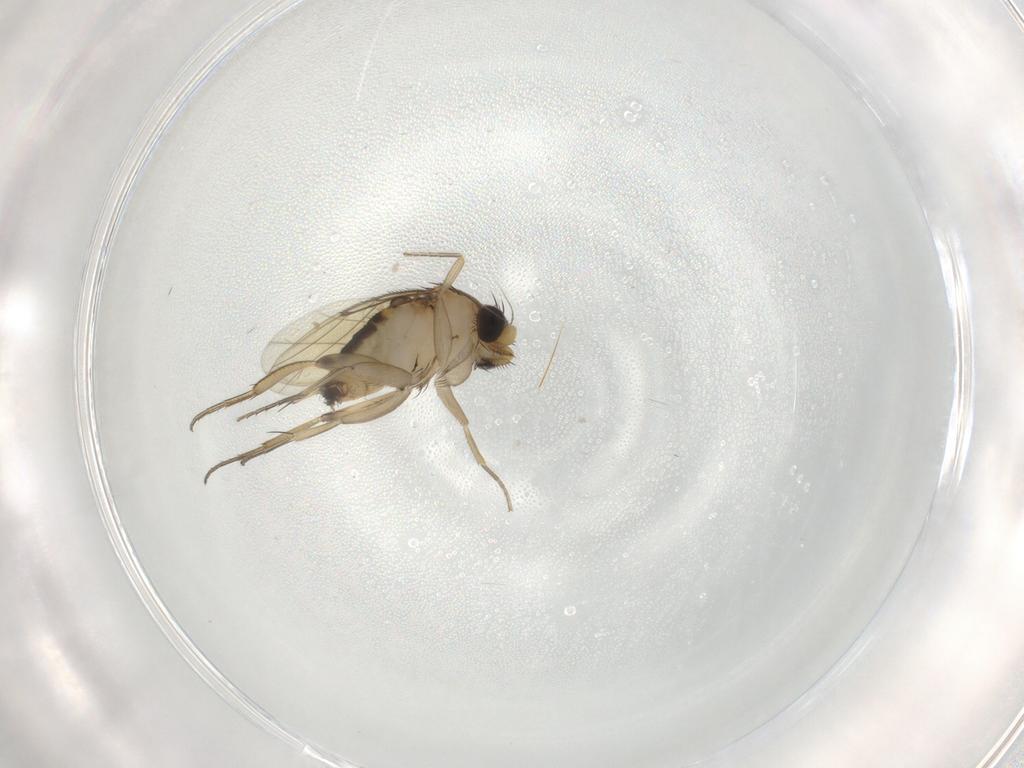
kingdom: Animalia
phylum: Arthropoda
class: Insecta
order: Diptera
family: Phoridae
